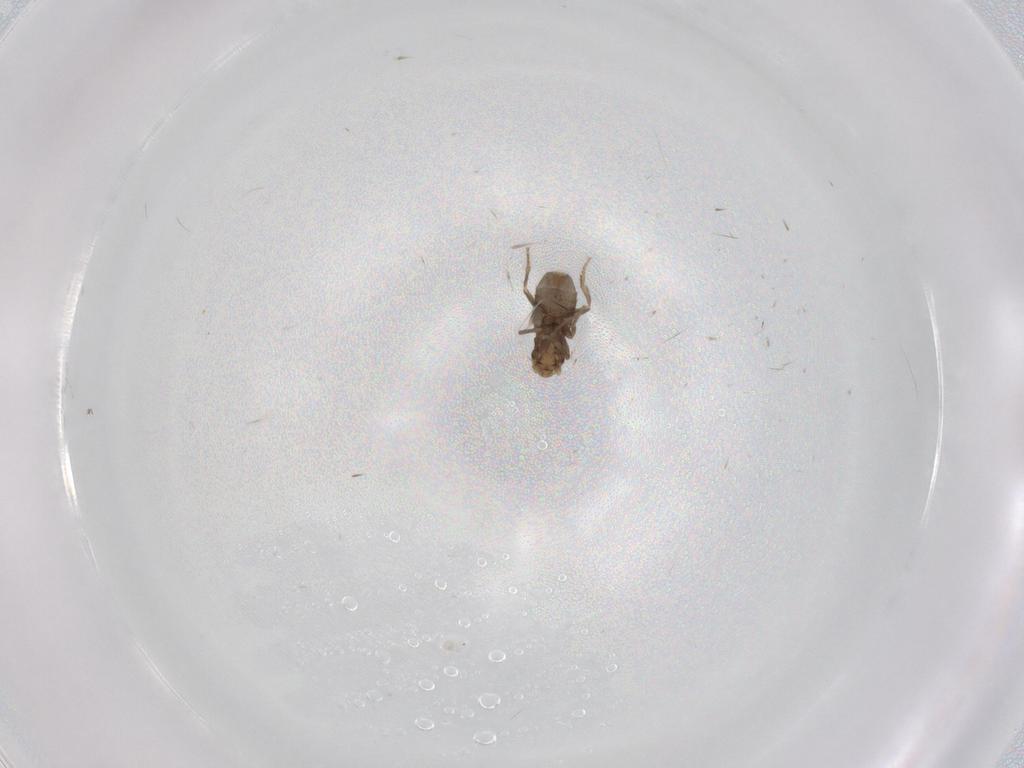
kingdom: Animalia
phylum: Arthropoda
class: Insecta
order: Diptera
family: Phoridae
